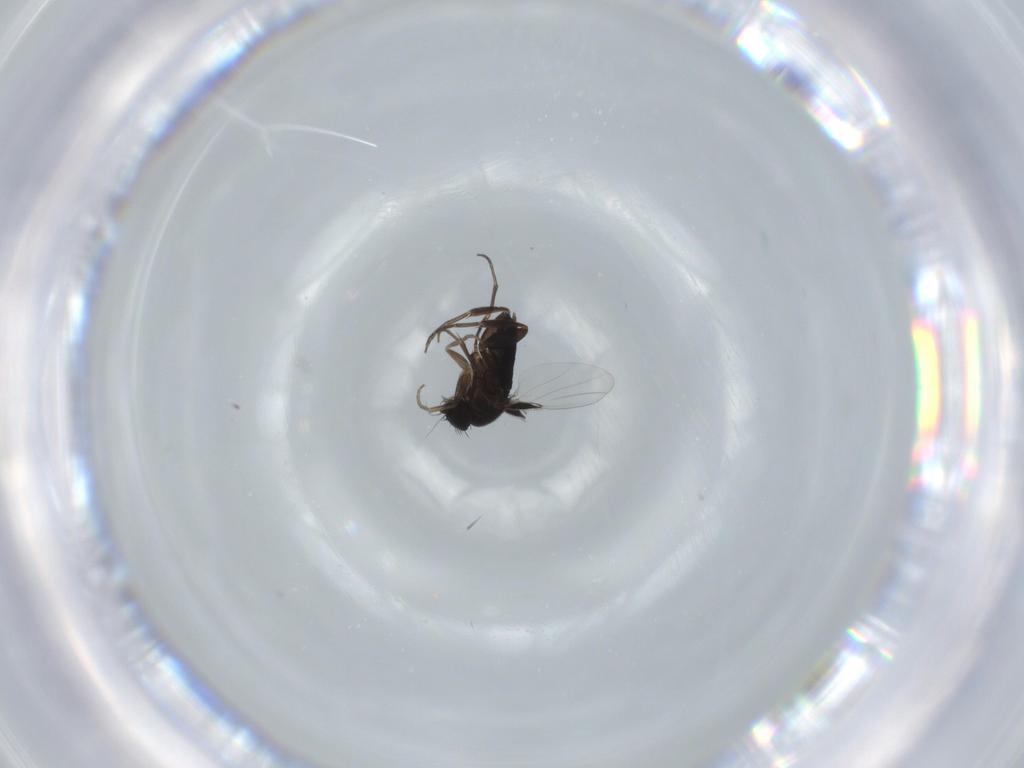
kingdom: Animalia
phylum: Arthropoda
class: Insecta
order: Diptera
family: Phoridae
